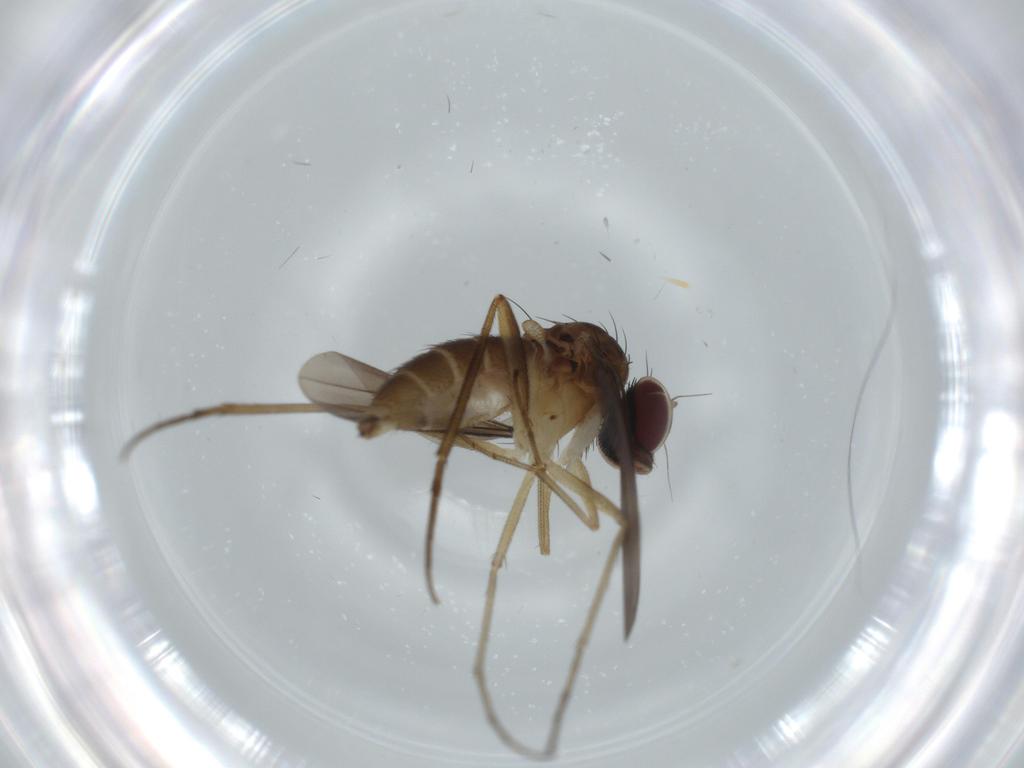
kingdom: Animalia
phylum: Arthropoda
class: Insecta
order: Diptera
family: Dolichopodidae
